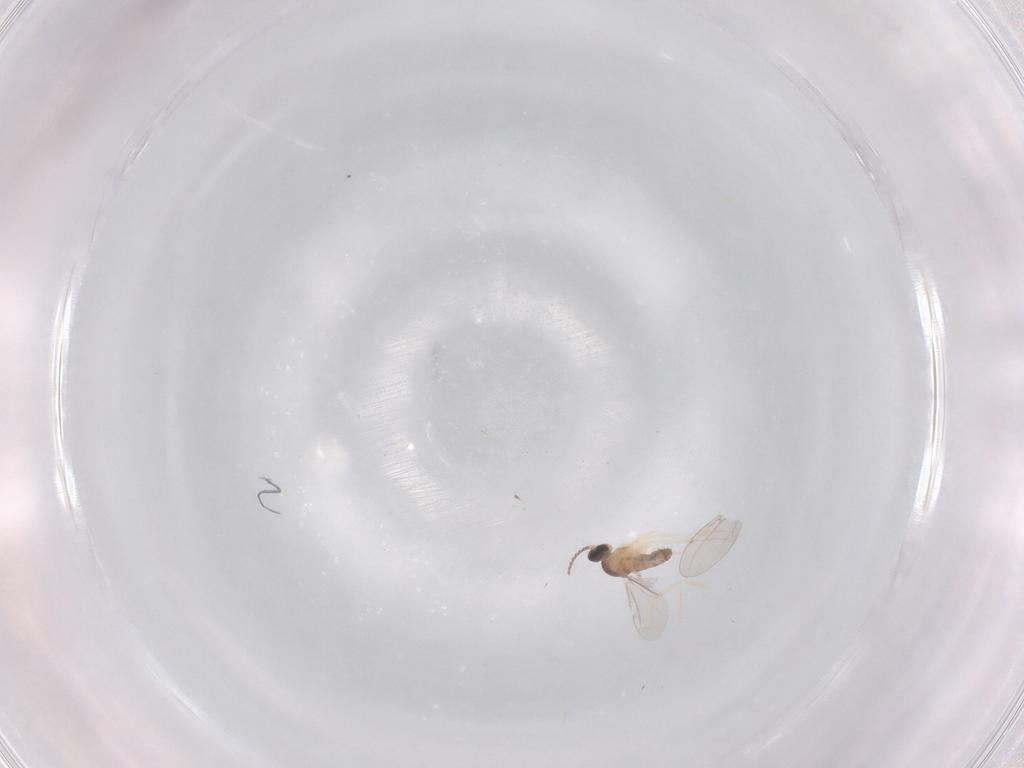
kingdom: Animalia
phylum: Arthropoda
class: Insecta
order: Diptera
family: Cecidomyiidae
